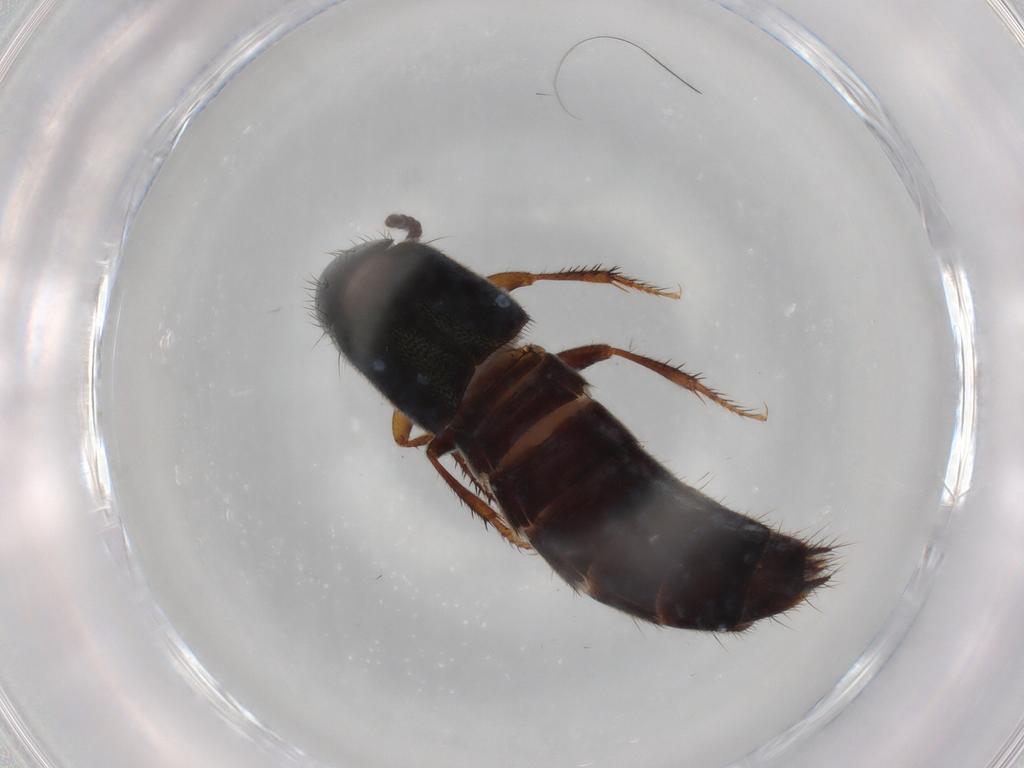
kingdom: Animalia
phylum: Arthropoda
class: Insecta
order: Coleoptera
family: Staphylinidae
